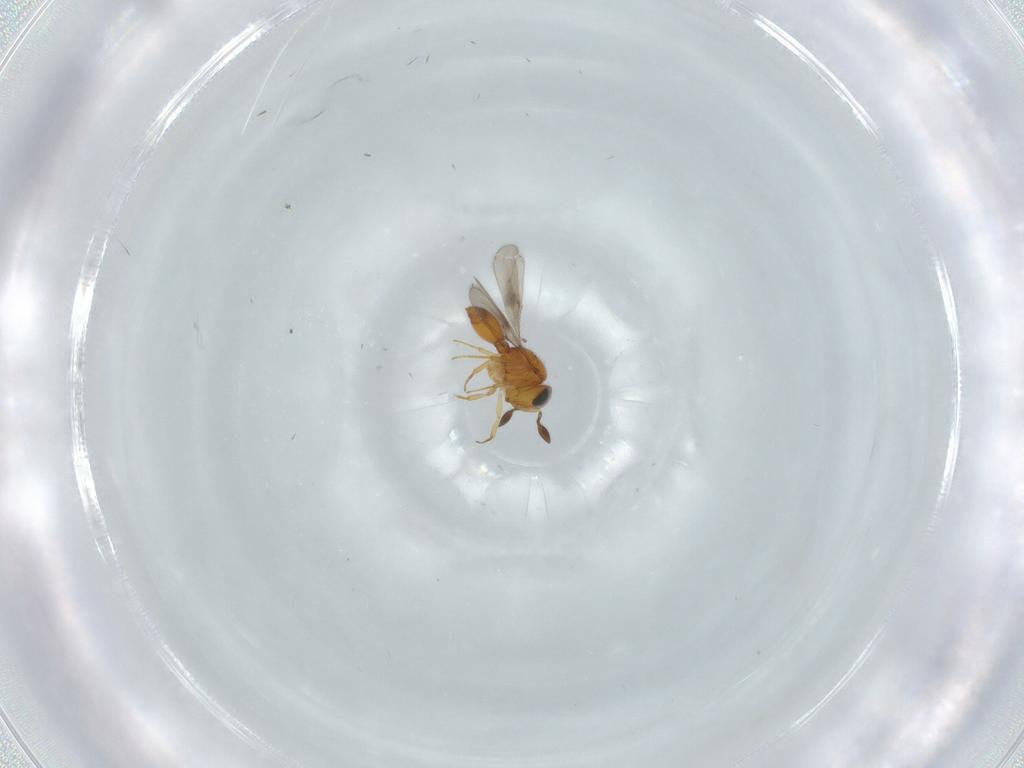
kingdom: Animalia
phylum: Arthropoda
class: Insecta
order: Hymenoptera
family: Scelionidae
